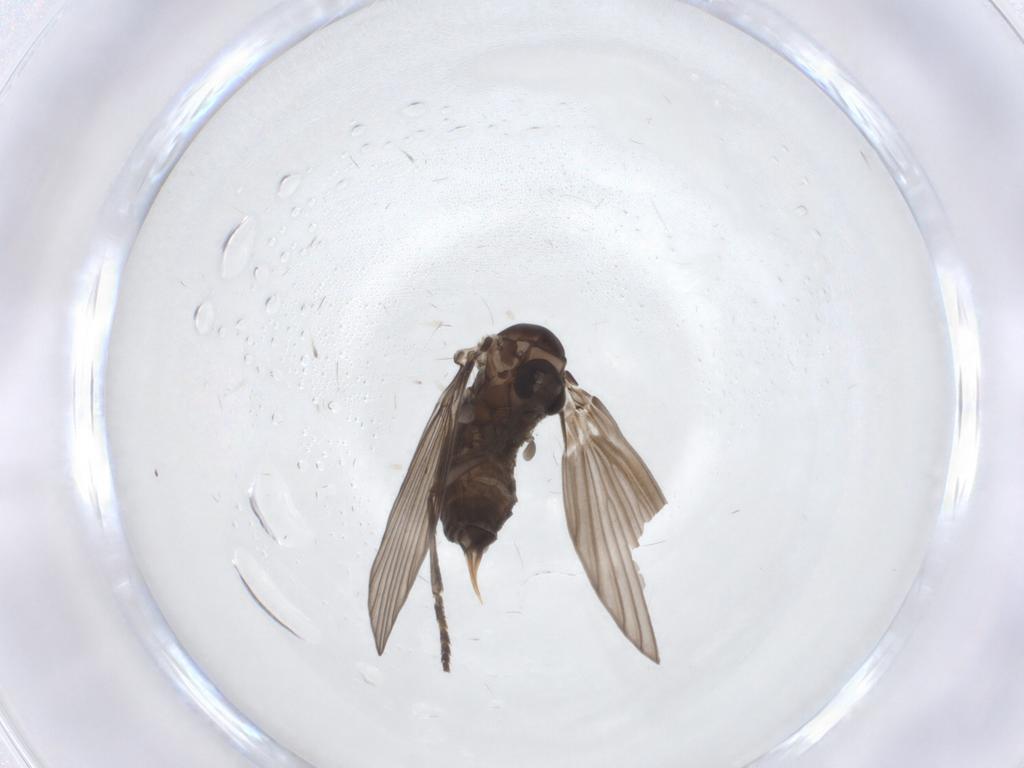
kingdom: Animalia
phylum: Arthropoda
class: Insecta
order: Diptera
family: Psychodidae
